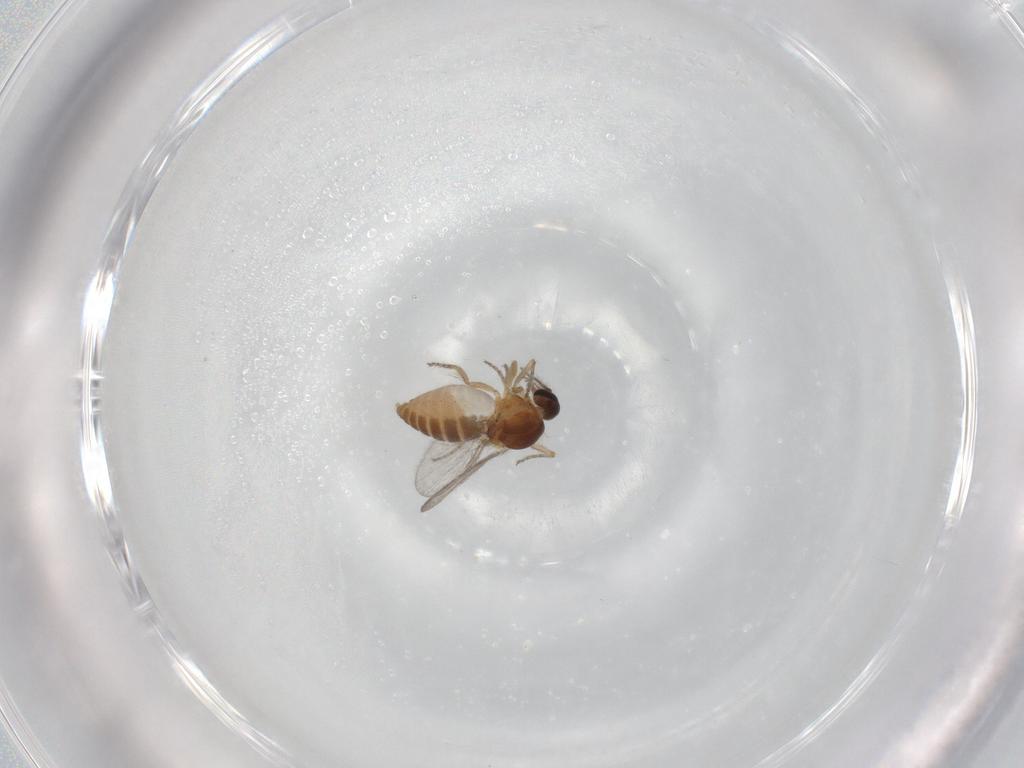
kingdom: Animalia
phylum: Arthropoda
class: Insecta
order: Diptera
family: Ceratopogonidae
